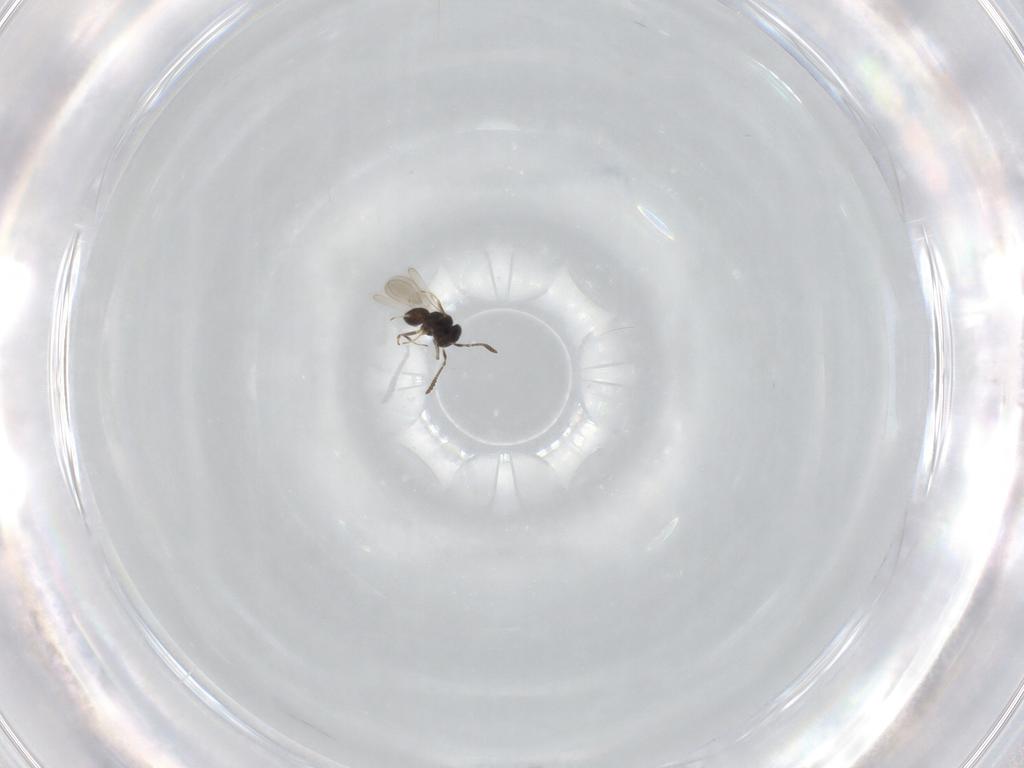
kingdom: Animalia
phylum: Arthropoda
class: Insecta
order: Hymenoptera
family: Scelionidae
